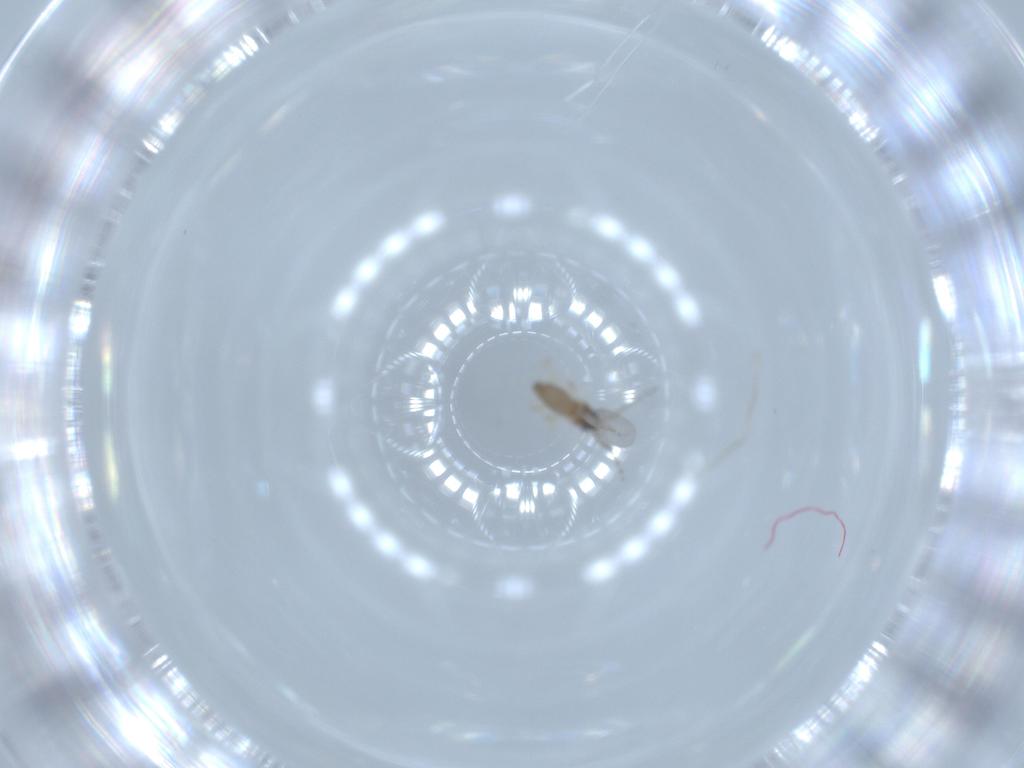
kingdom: Animalia
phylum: Arthropoda
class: Insecta
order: Diptera
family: Cecidomyiidae
